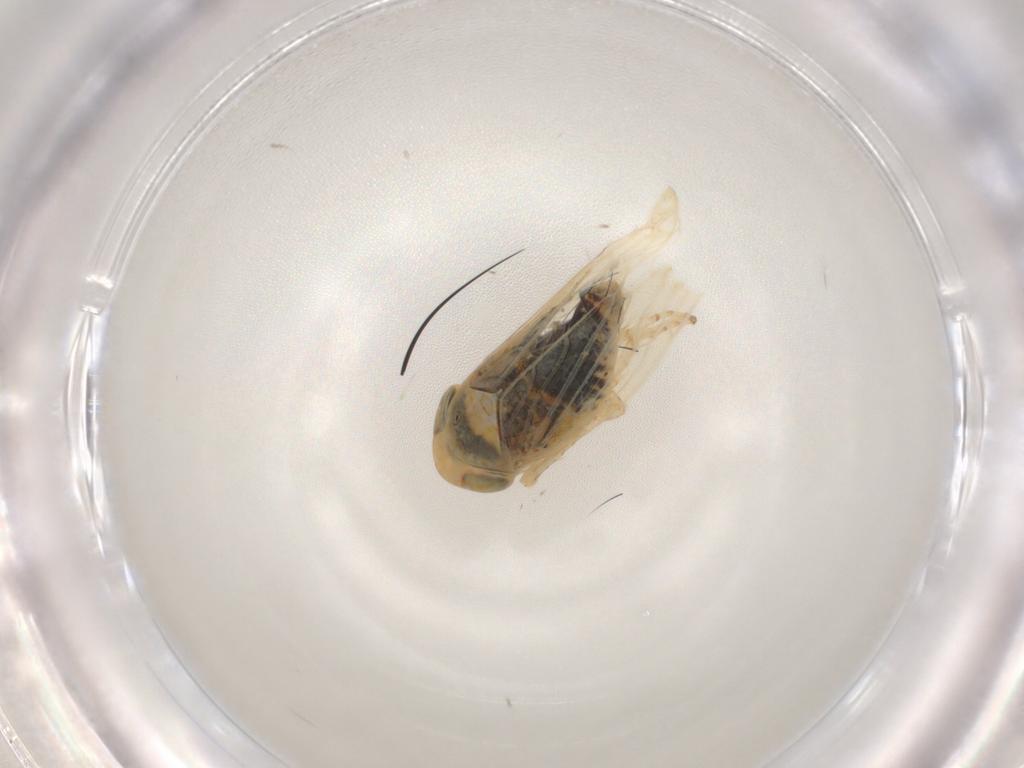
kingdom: Animalia
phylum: Arthropoda
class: Insecta
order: Hemiptera
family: Cicadellidae
